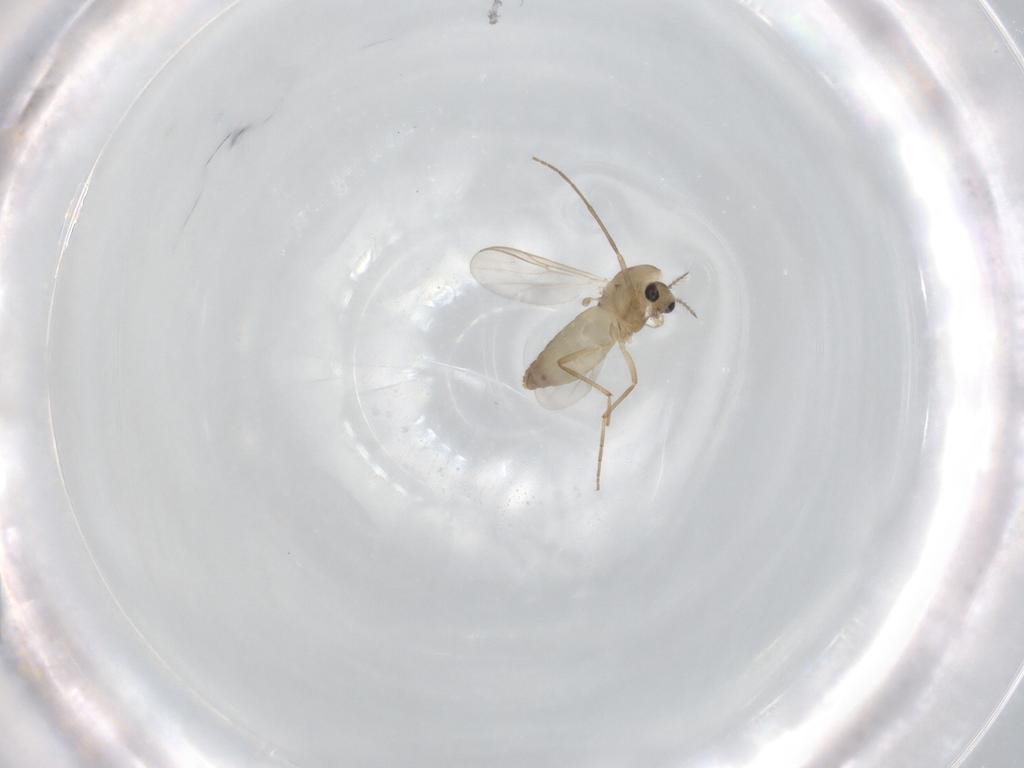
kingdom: Animalia
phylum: Arthropoda
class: Insecta
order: Diptera
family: Chironomidae
